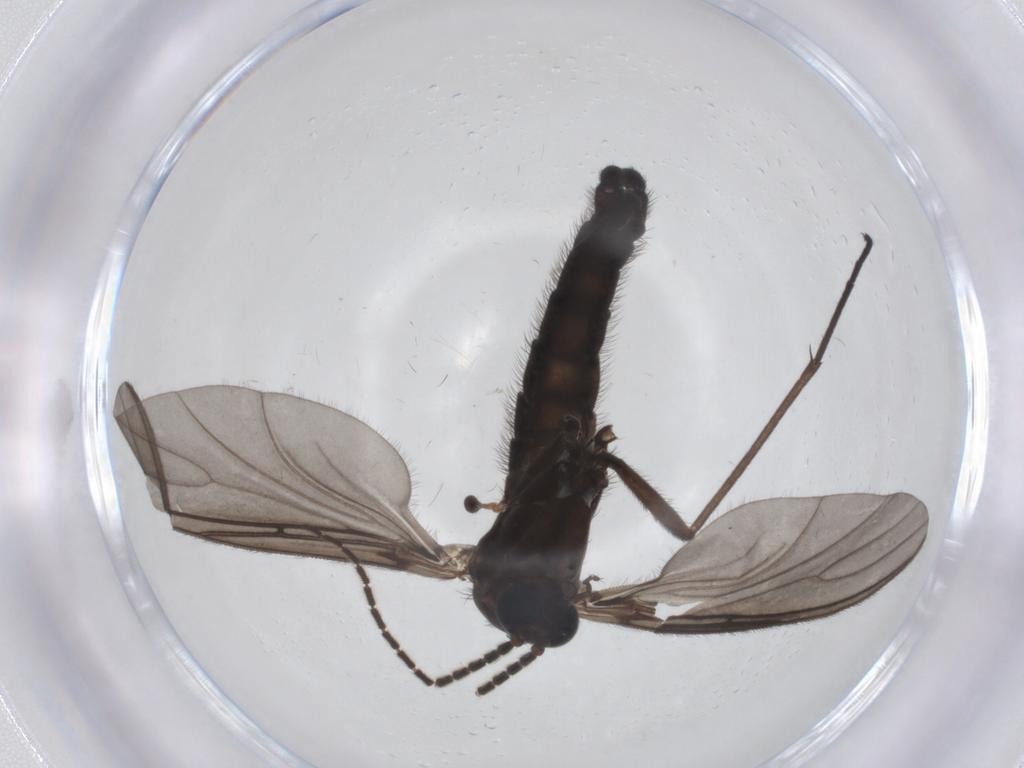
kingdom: Animalia
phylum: Arthropoda
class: Insecta
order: Diptera
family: Sciaridae
